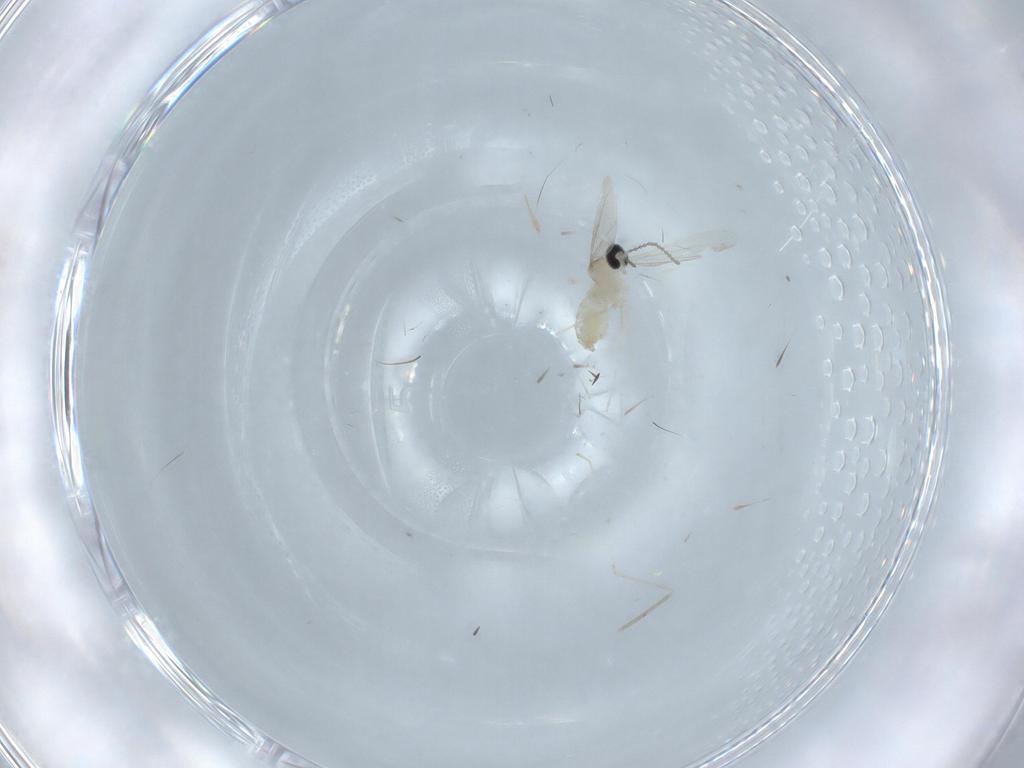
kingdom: Animalia
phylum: Arthropoda
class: Insecta
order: Diptera
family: Cecidomyiidae
